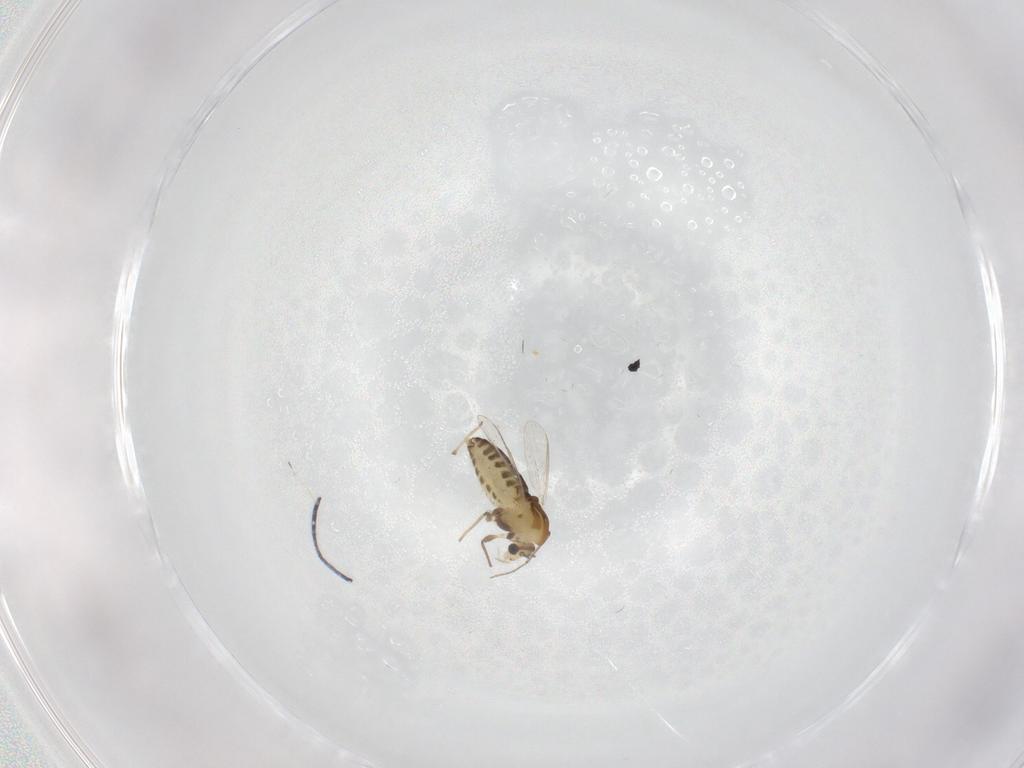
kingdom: Animalia
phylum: Arthropoda
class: Insecta
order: Diptera
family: Chironomidae
